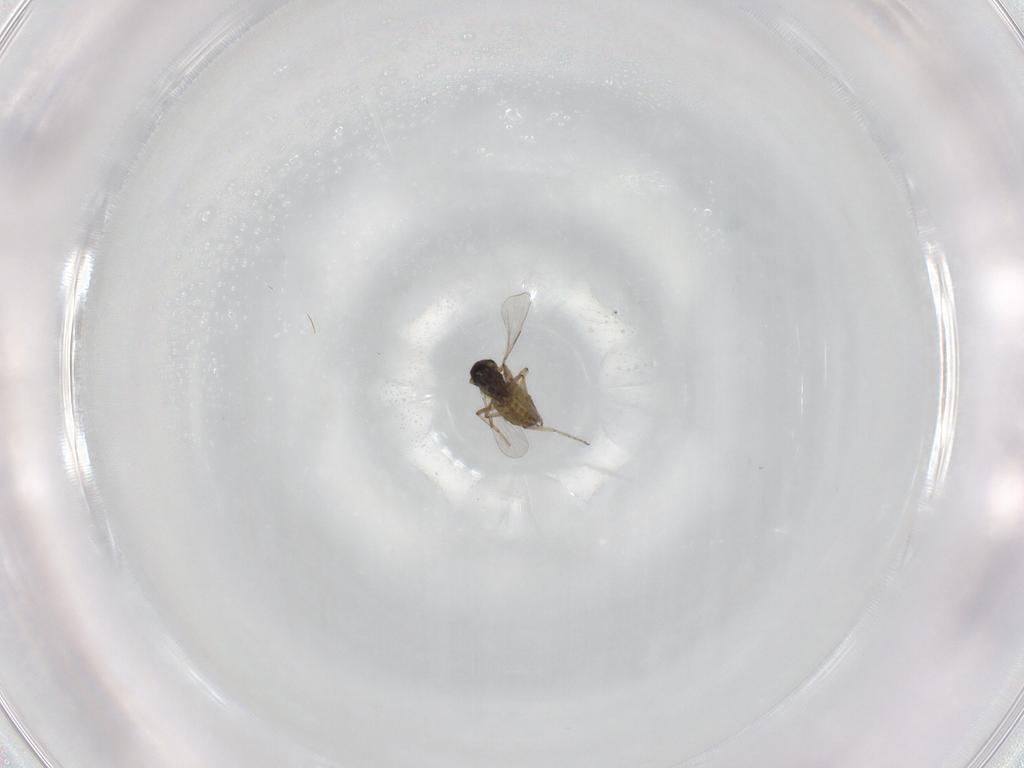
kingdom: Animalia
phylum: Arthropoda
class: Insecta
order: Diptera
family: Ceratopogonidae
